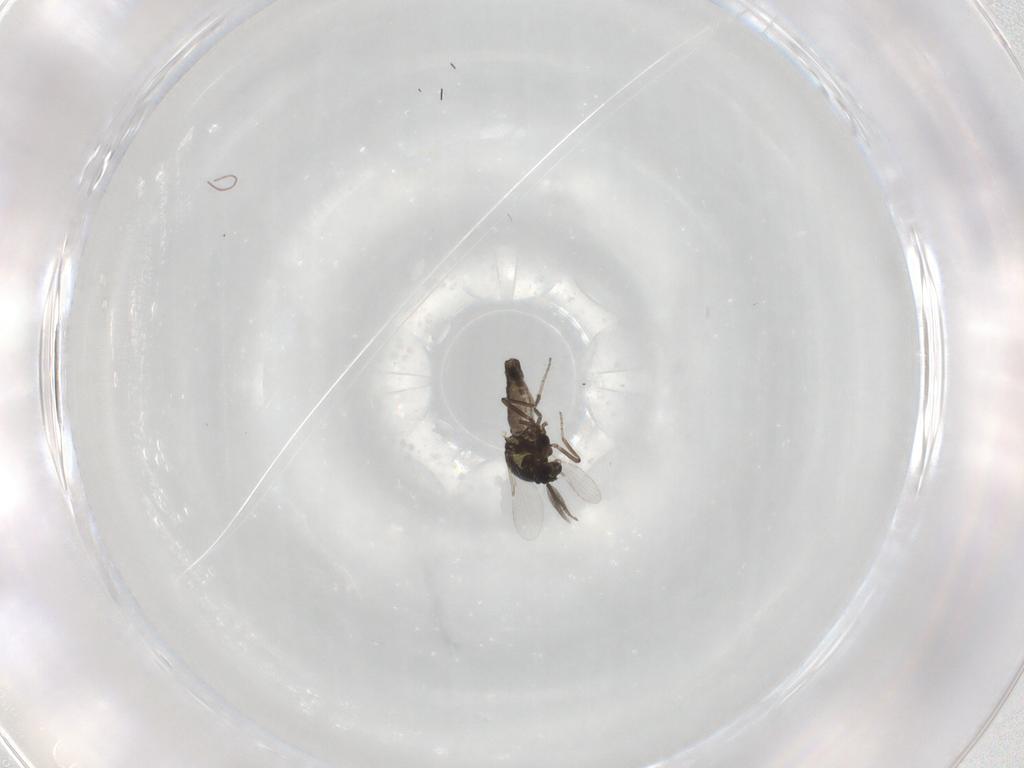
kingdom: Animalia
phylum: Arthropoda
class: Insecta
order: Diptera
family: Ceratopogonidae
